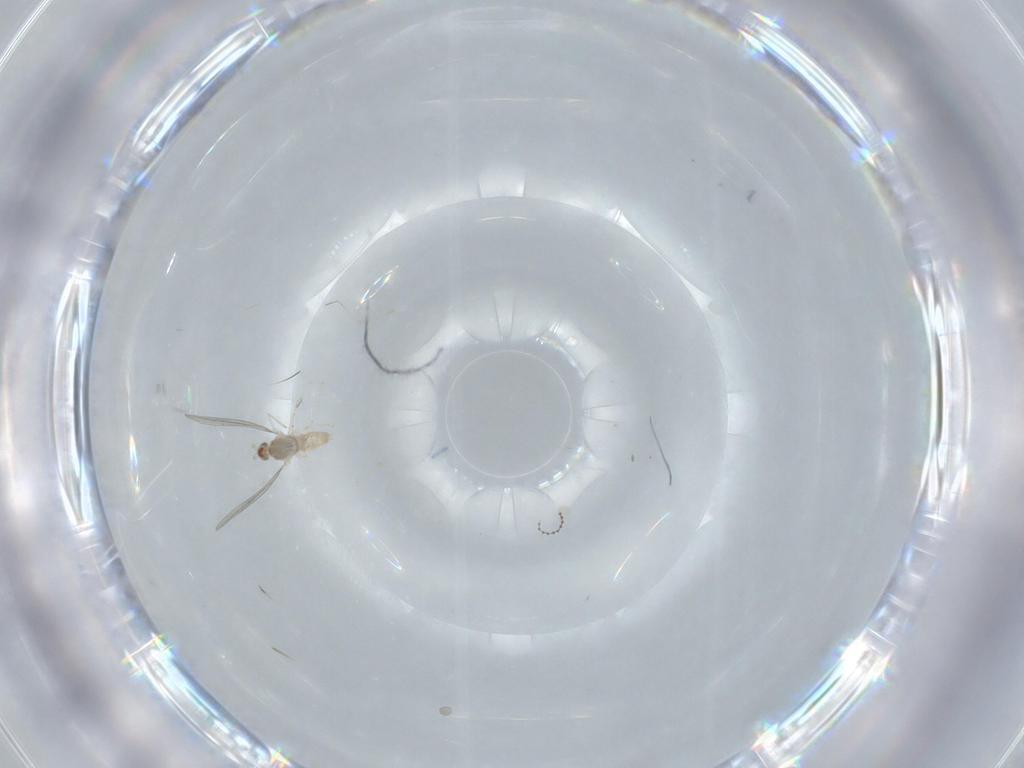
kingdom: Animalia
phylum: Arthropoda
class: Insecta
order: Diptera
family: Cecidomyiidae
